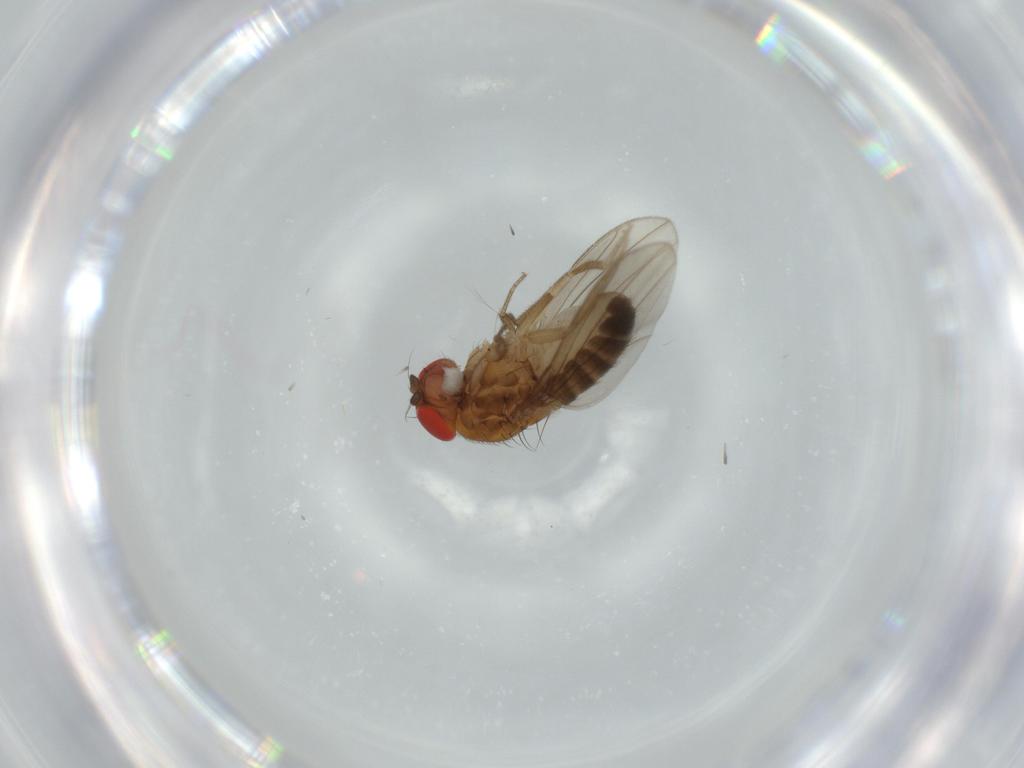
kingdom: Animalia
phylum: Arthropoda
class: Insecta
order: Diptera
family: Drosophilidae
